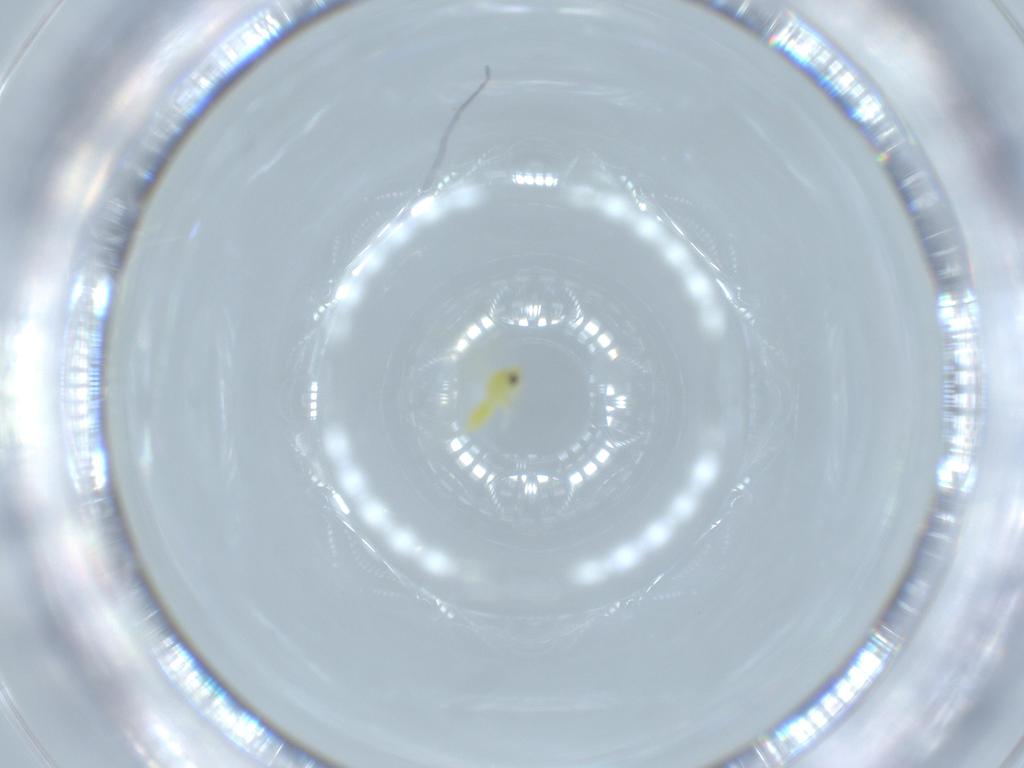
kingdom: Animalia
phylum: Arthropoda
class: Insecta
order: Hemiptera
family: Aleyrodidae
